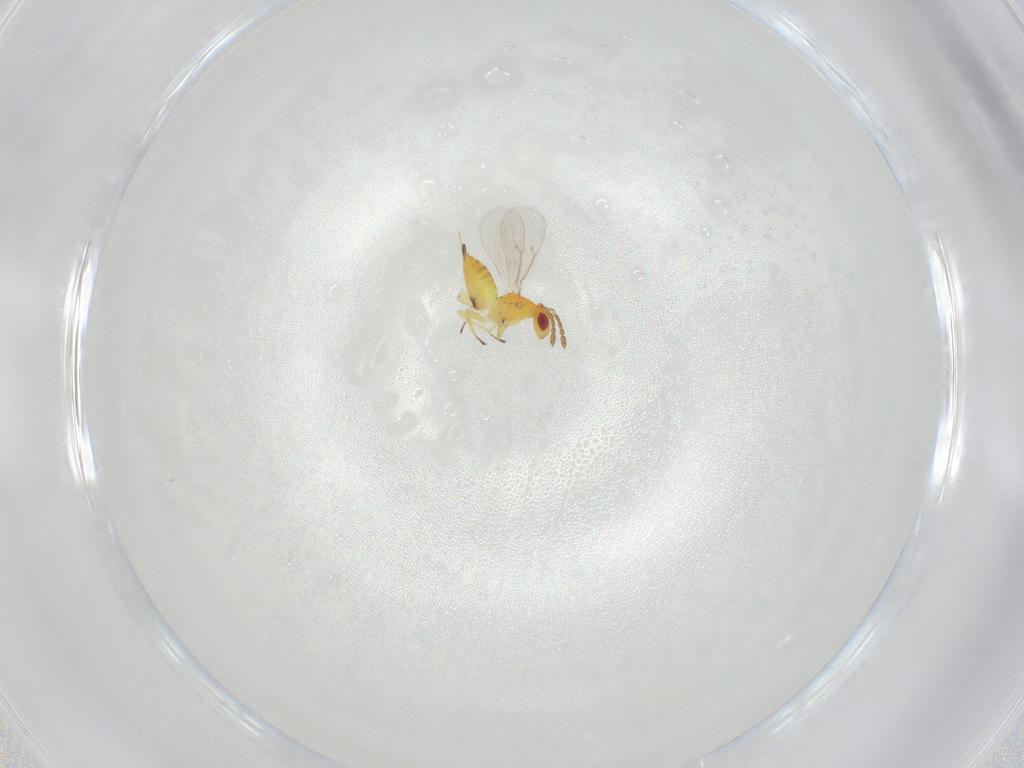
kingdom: Animalia
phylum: Arthropoda
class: Insecta
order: Hymenoptera
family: Eulophidae
